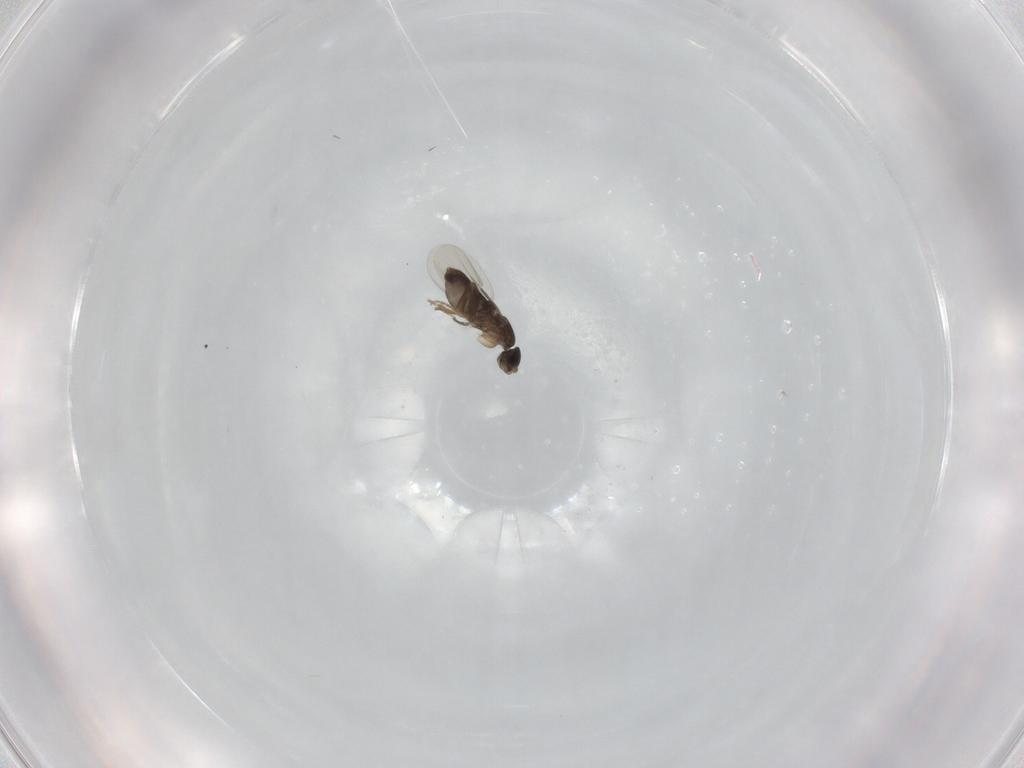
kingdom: Animalia
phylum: Arthropoda
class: Insecta
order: Diptera
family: Phoridae
